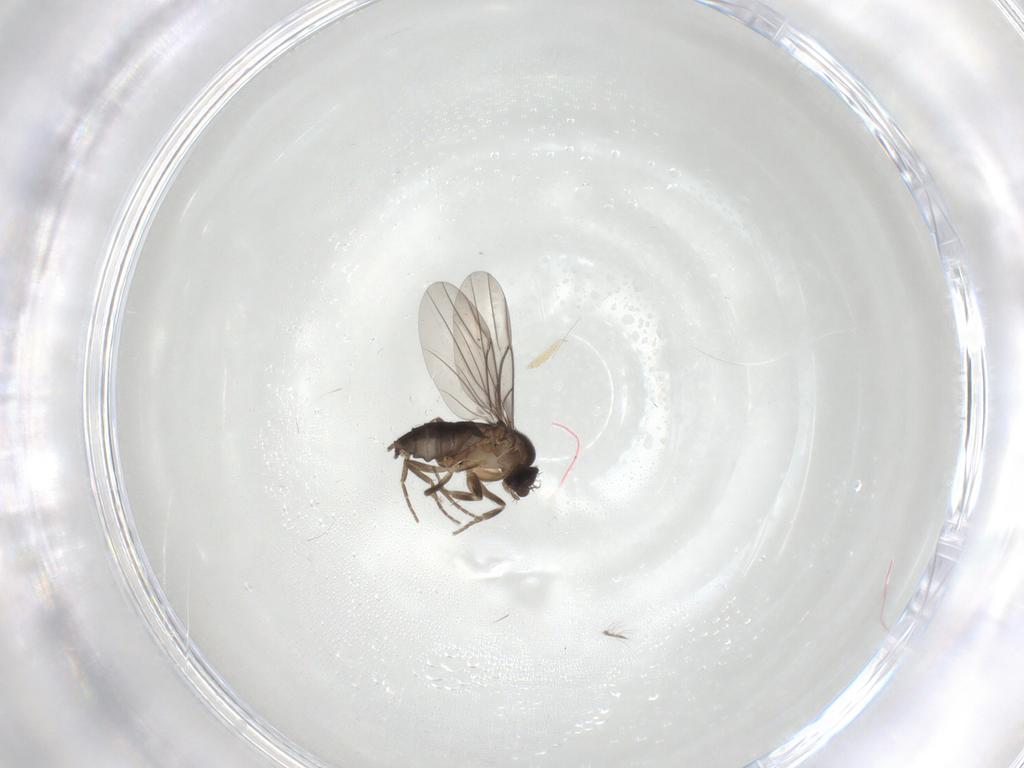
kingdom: Animalia
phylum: Arthropoda
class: Insecta
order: Diptera
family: Chironomidae
